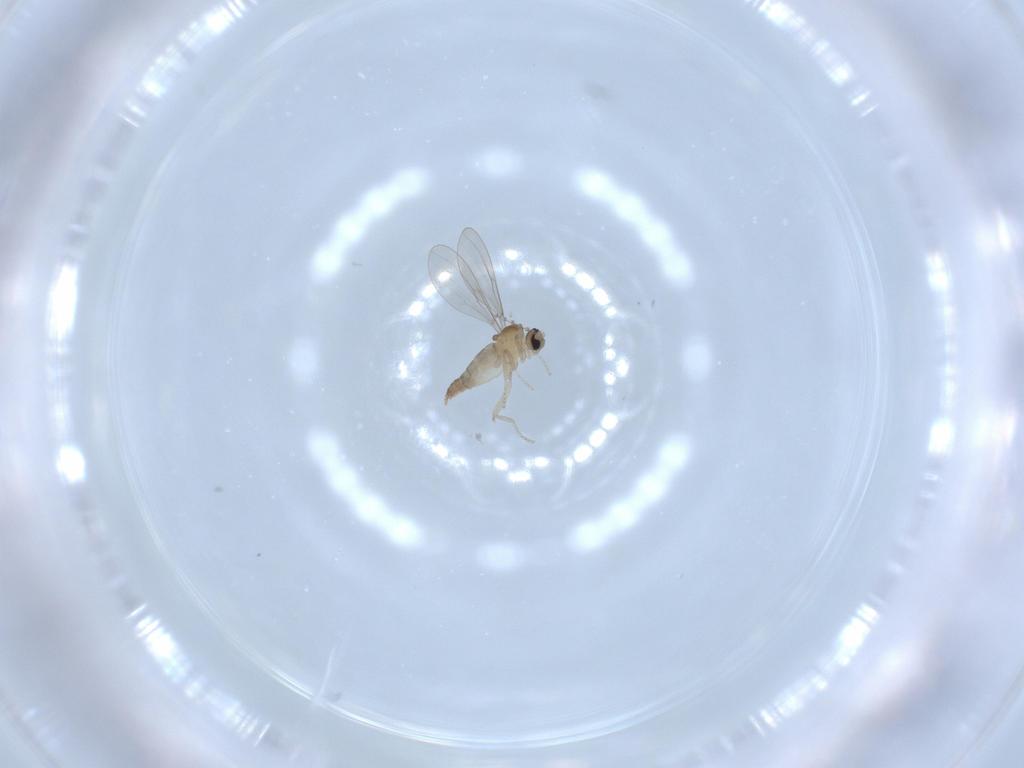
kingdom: Animalia
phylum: Arthropoda
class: Insecta
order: Diptera
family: Cecidomyiidae
